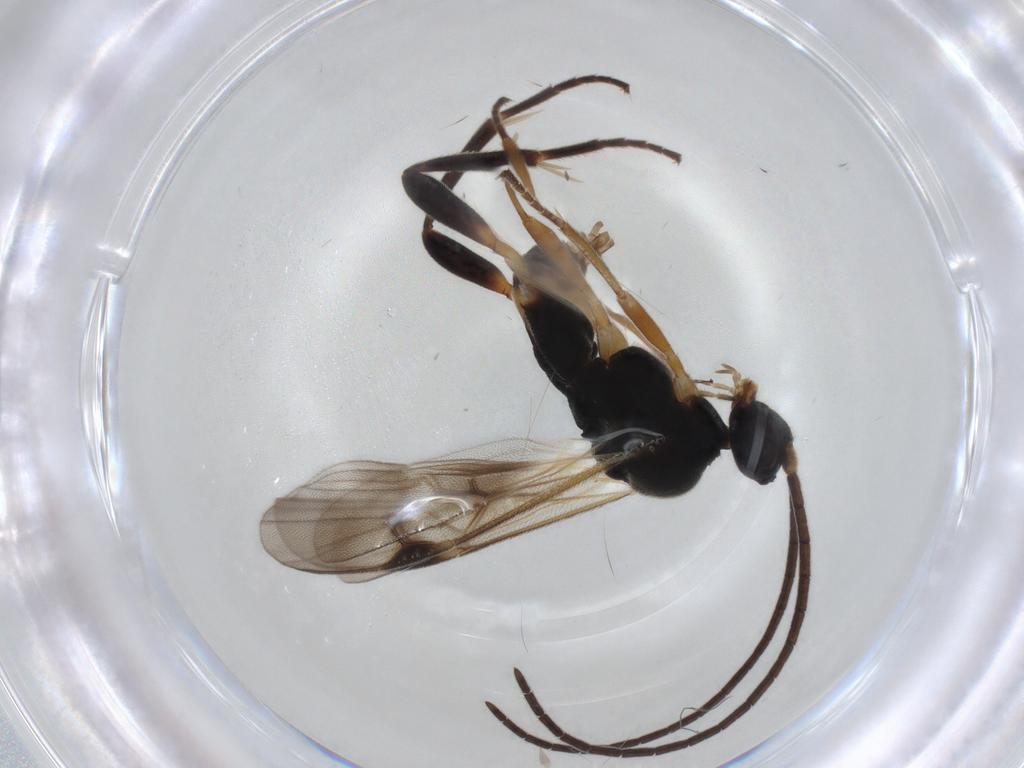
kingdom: Animalia
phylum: Arthropoda
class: Insecta
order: Hymenoptera
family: Braconidae
